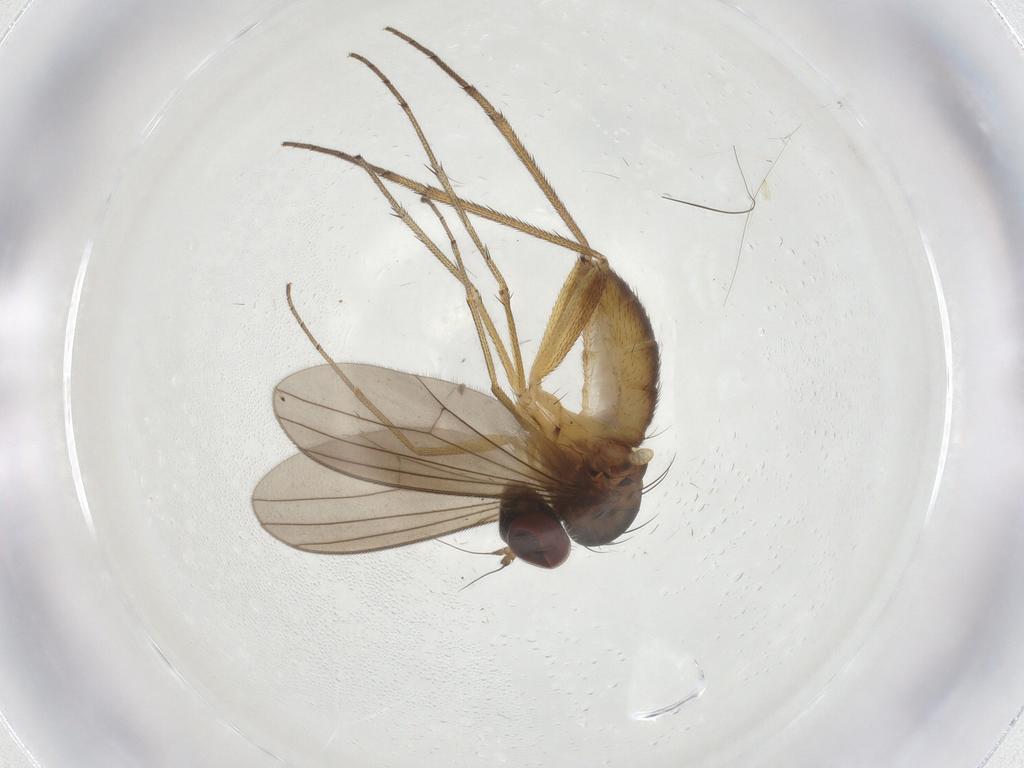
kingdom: Animalia
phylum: Arthropoda
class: Insecta
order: Diptera
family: Dolichopodidae
